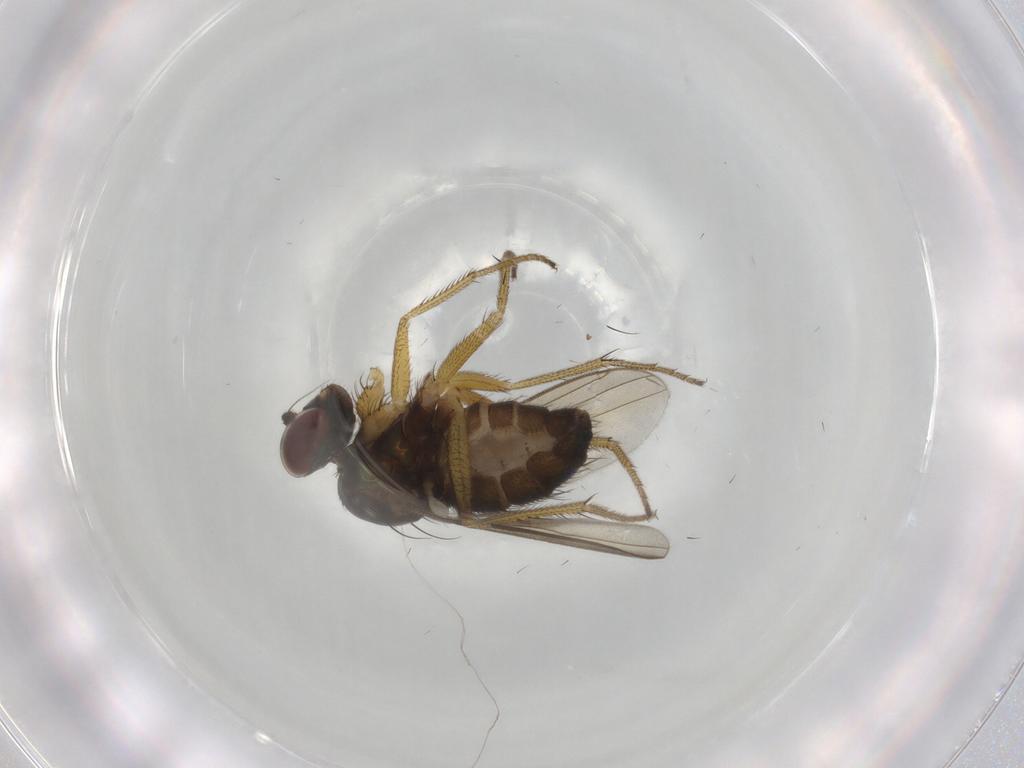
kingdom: Animalia
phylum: Arthropoda
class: Insecta
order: Diptera
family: Dolichopodidae
